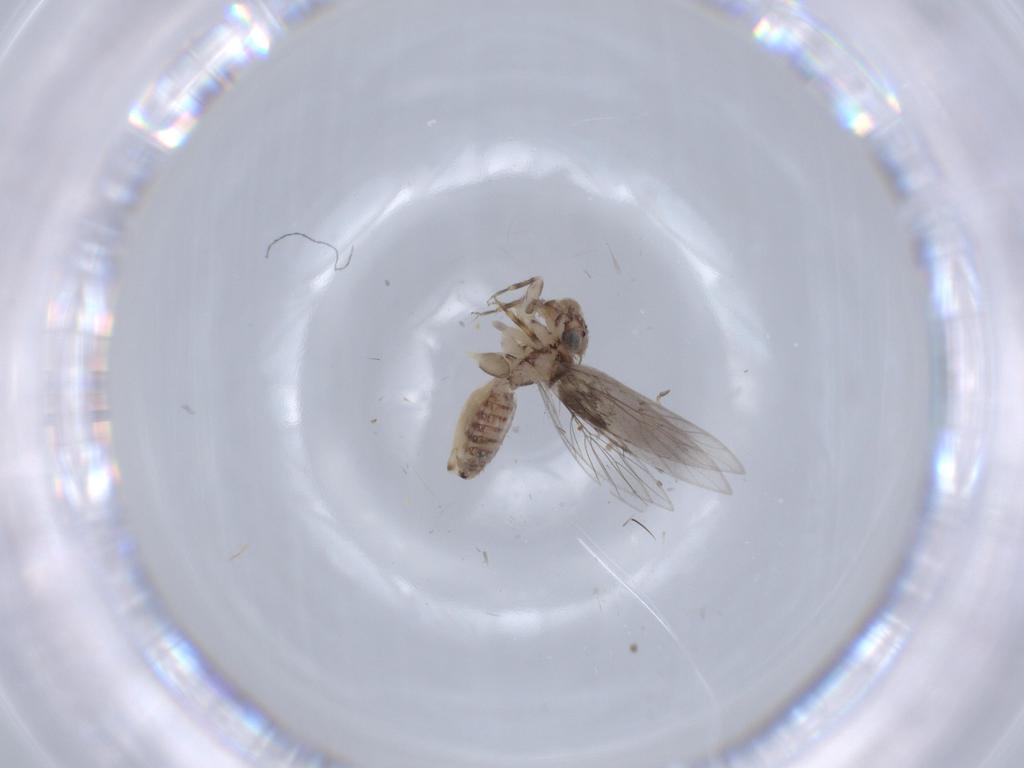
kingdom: Animalia
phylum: Arthropoda
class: Insecta
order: Psocodea
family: Lepidopsocidae
